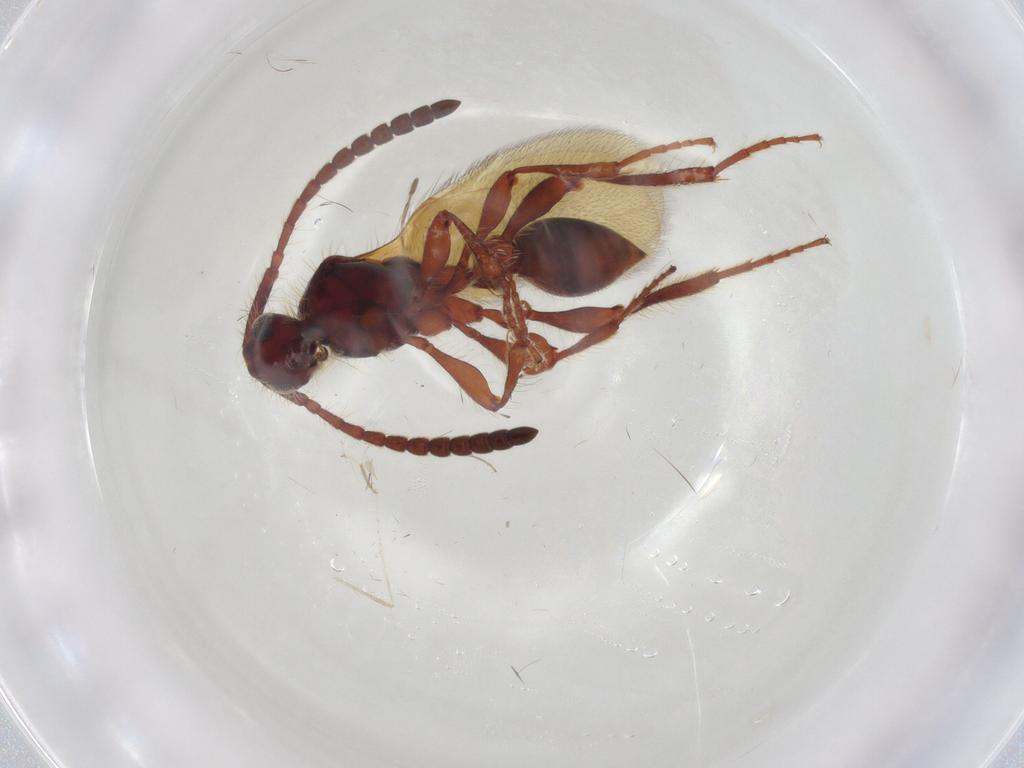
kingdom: Animalia
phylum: Arthropoda
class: Insecta
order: Hymenoptera
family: Diapriidae
